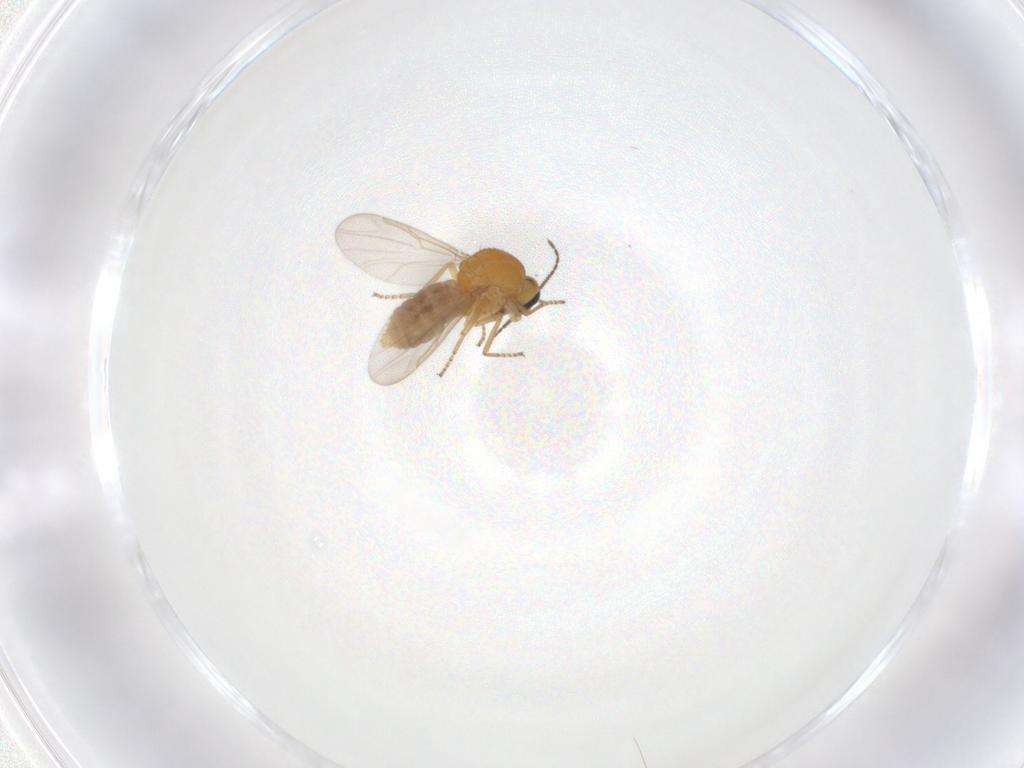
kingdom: Animalia
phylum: Arthropoda
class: Insecta
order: Diptera
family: Ceratopogonidae
